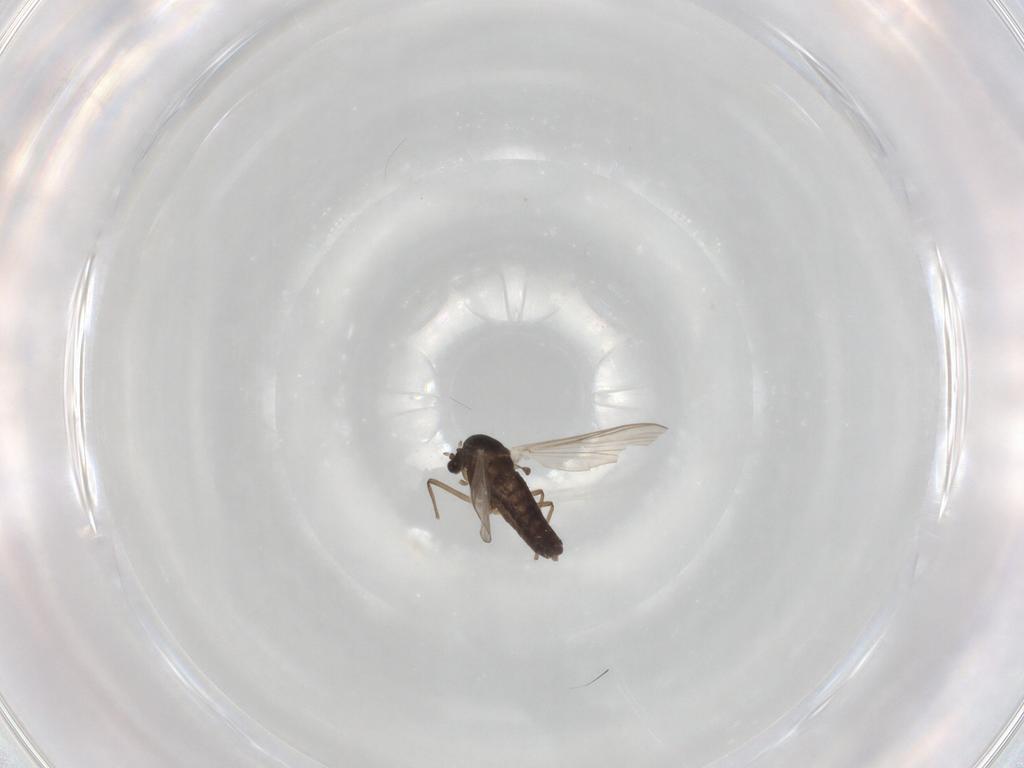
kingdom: Animalia
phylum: Arthropoda
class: Insecta
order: Diptera
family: Chironomidae
